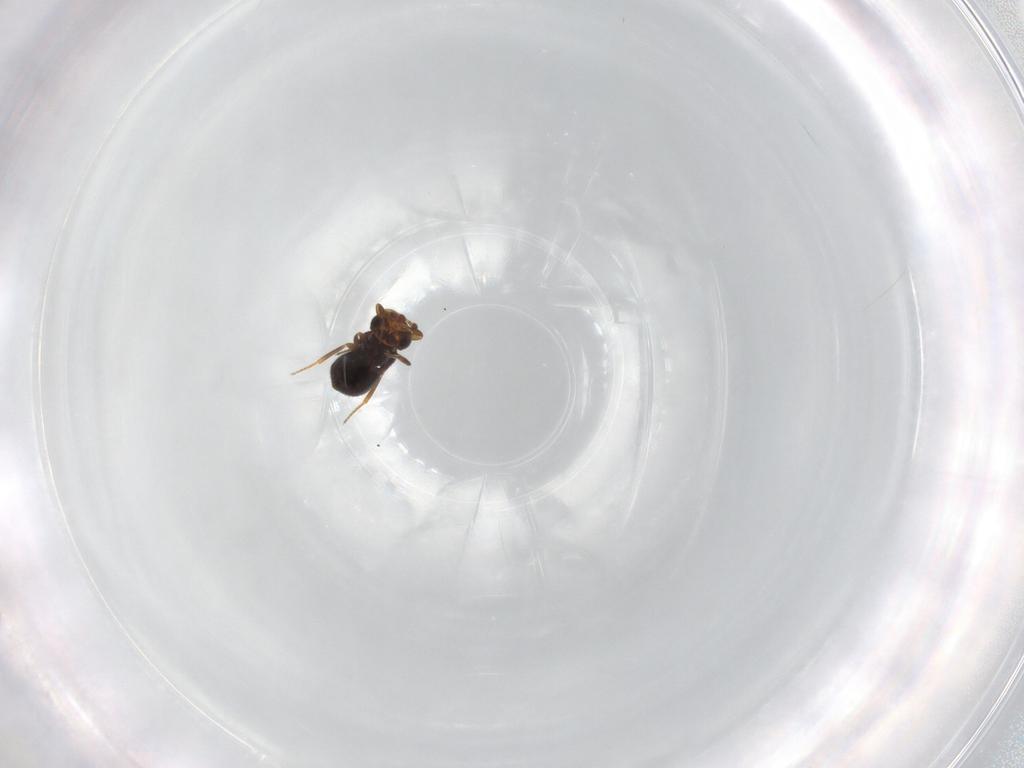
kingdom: Animalia
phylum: Arthropoda
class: Insecta
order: Hymenoptera
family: Scelionidae
